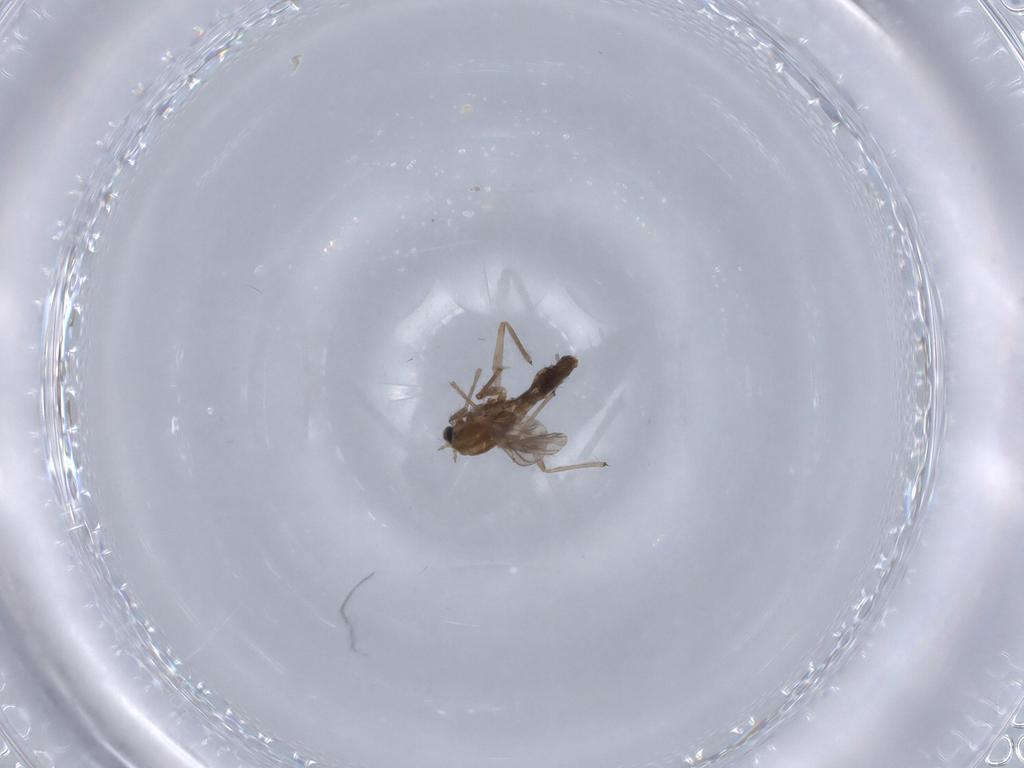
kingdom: Animalia
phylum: Arthropoda
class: Insecta
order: Diptera
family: Chironomidae
